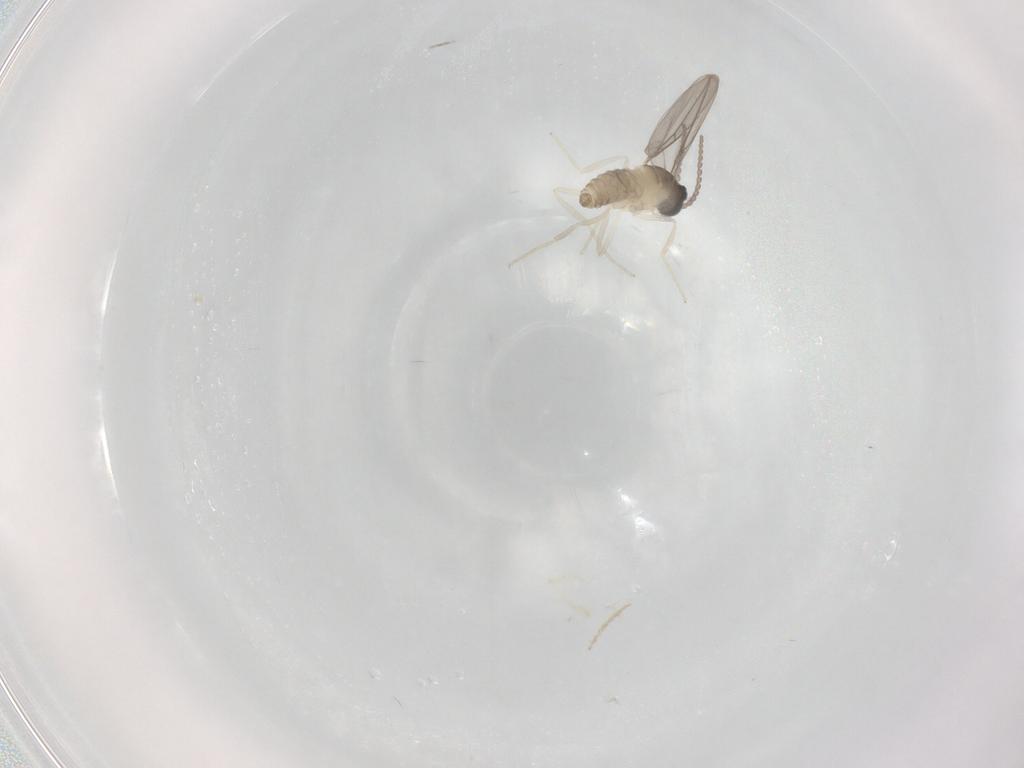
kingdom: Animalia
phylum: Arthropoda
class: Insecta
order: Diptera
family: Cecidomyiidae
